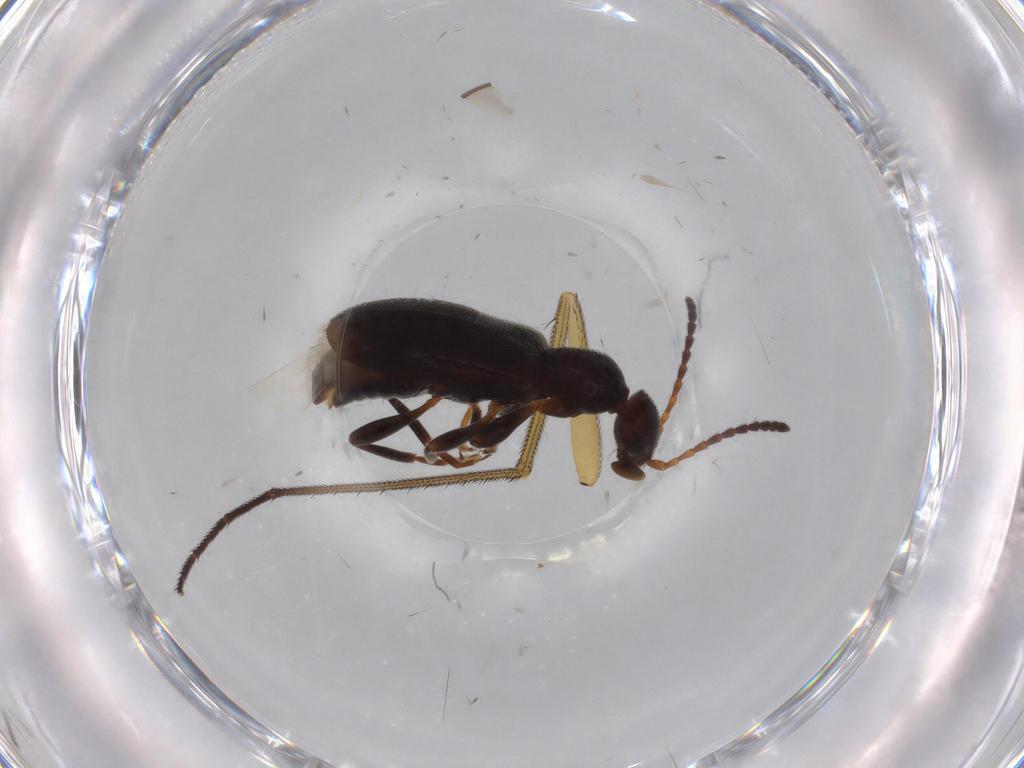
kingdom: Animalia
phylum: Arthropoda
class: Insecta
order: Coleoptera
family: Anthicidae
